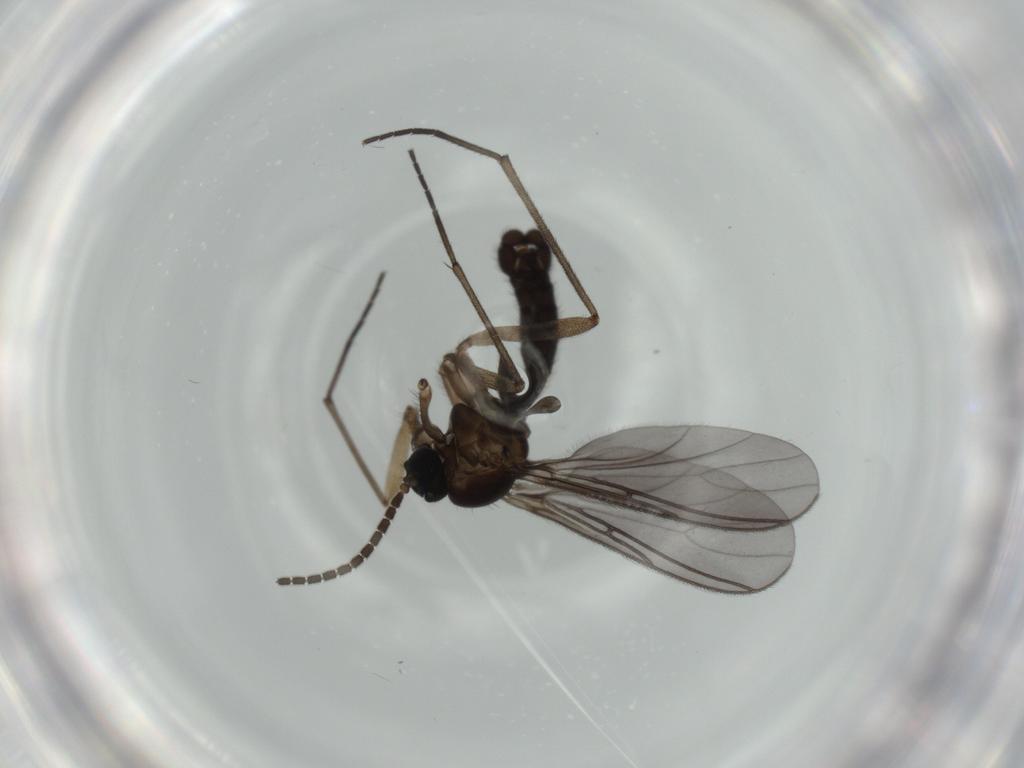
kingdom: Animalia
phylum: Arthropoda
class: Insecta
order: Diptera
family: Sciaridae
